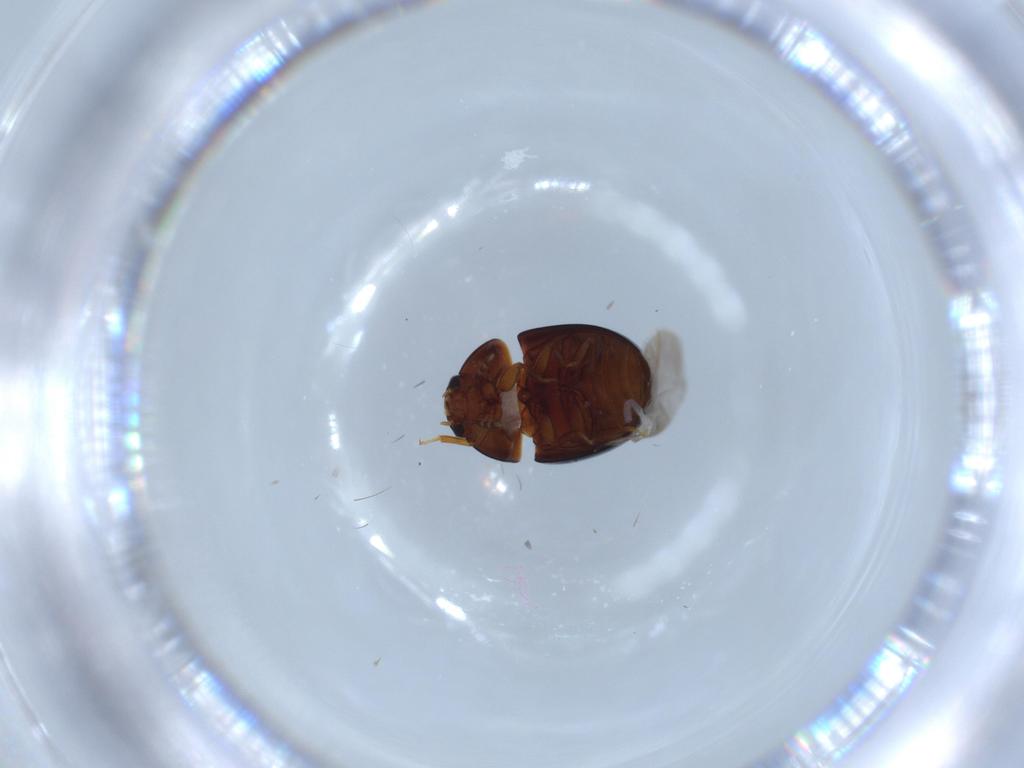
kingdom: Animalia
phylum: Arthropoda
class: Insecta
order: Coleoptera
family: Phalacridae
